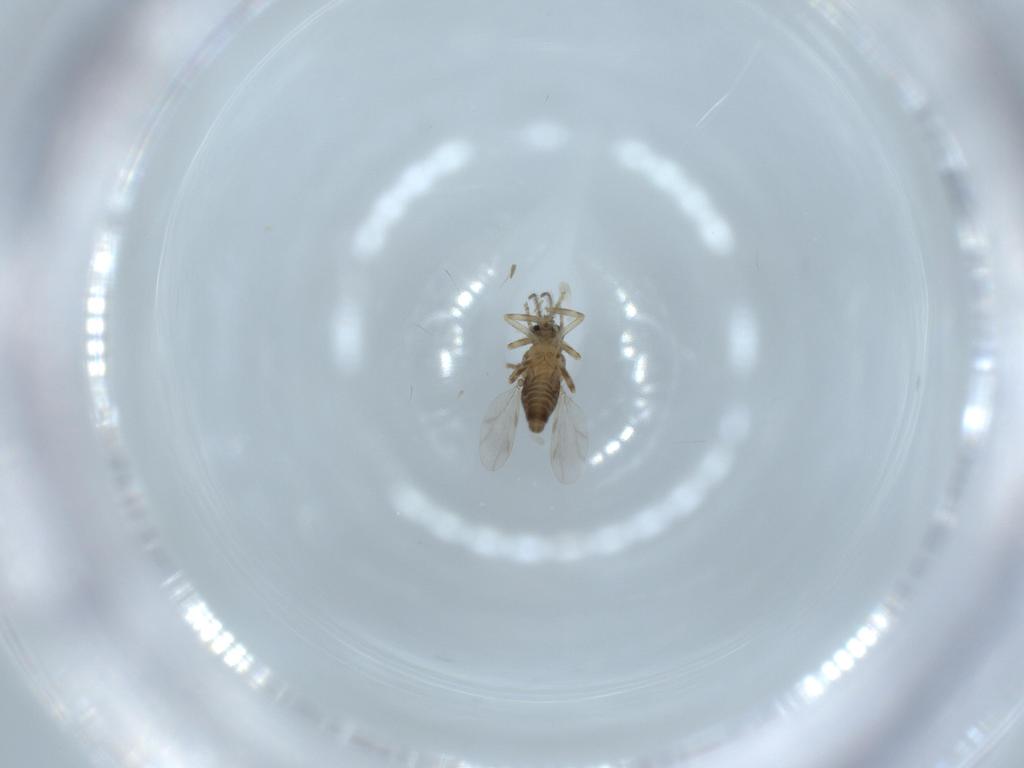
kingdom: Animalia
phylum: Arthropoda
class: Insecta
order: Diptera
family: Ceratopogonidae
